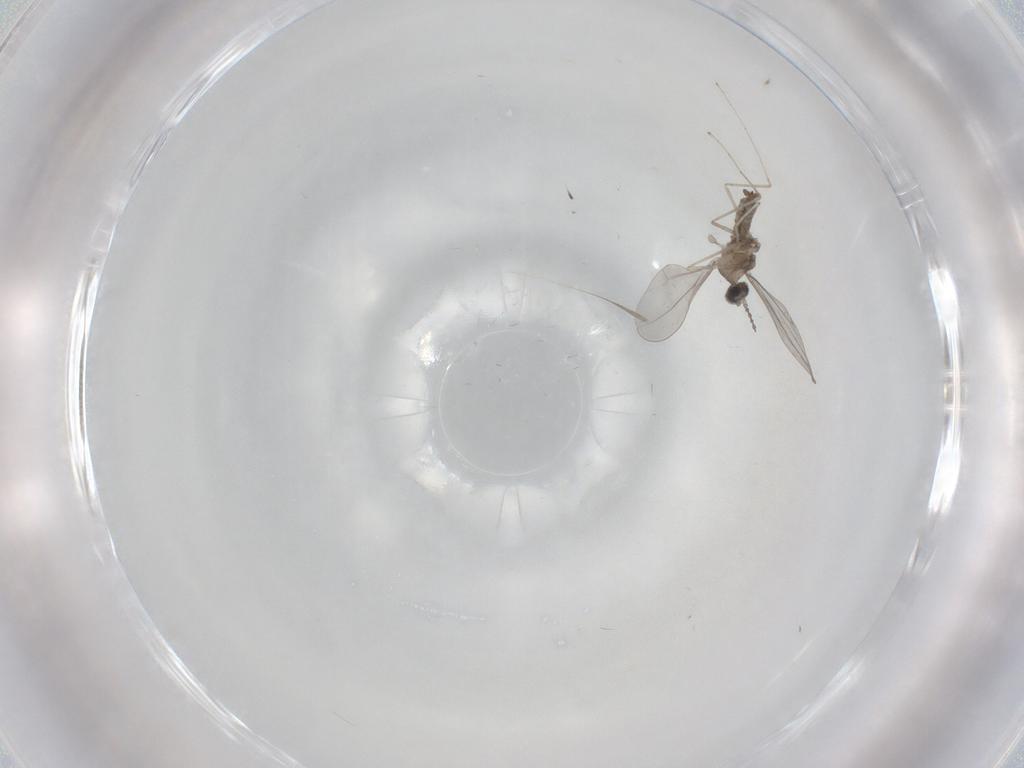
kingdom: Animalia
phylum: Arthropoda
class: Insecta
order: Diptera
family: Cecidomyiidae
